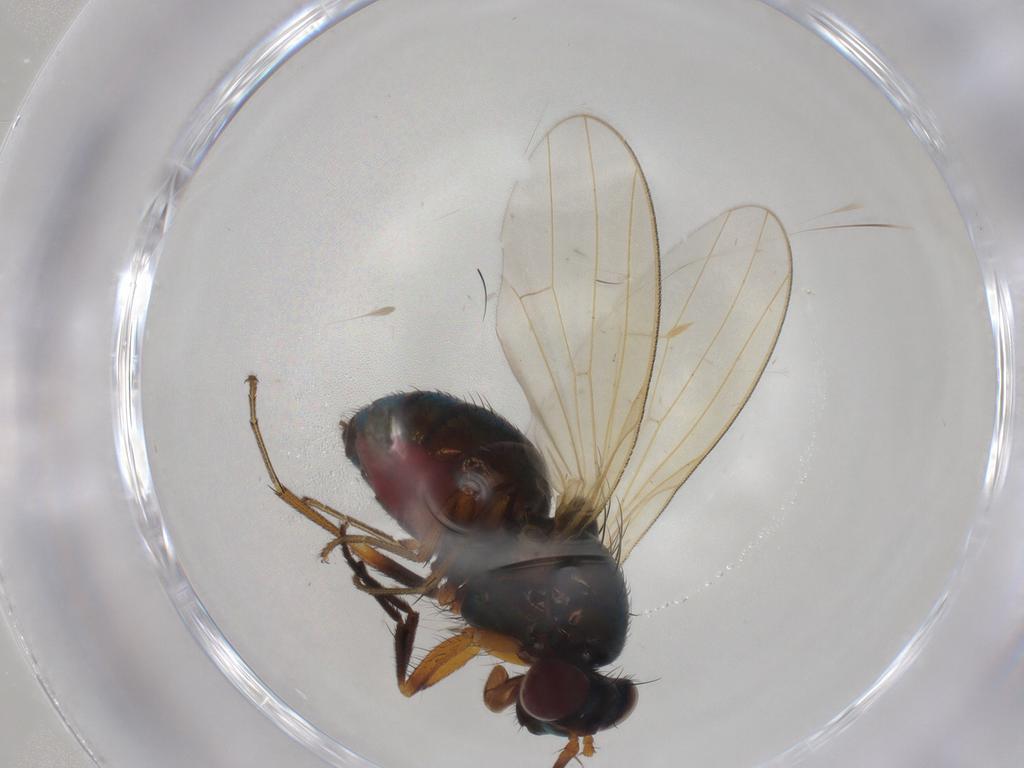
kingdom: Animalia
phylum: Arthropoda
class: Insecta
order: Diptera
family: Lauxaniidae
